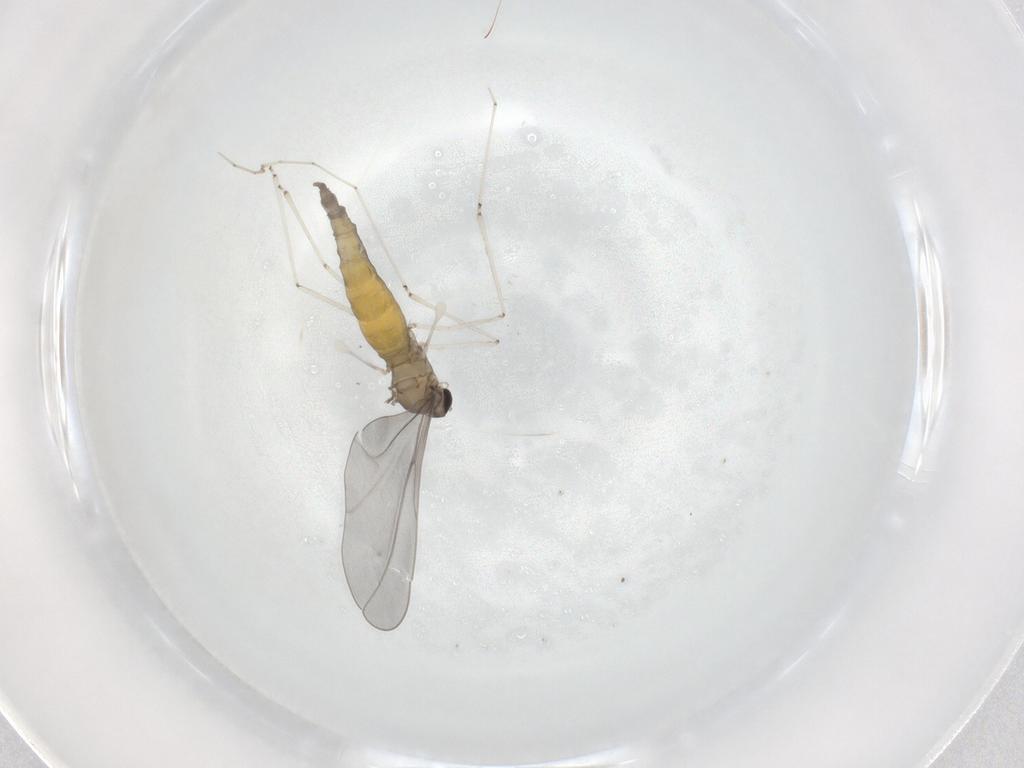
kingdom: Animalia
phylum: Arthropoda
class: Insecta
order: Diptera
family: Cecidomyiidae
